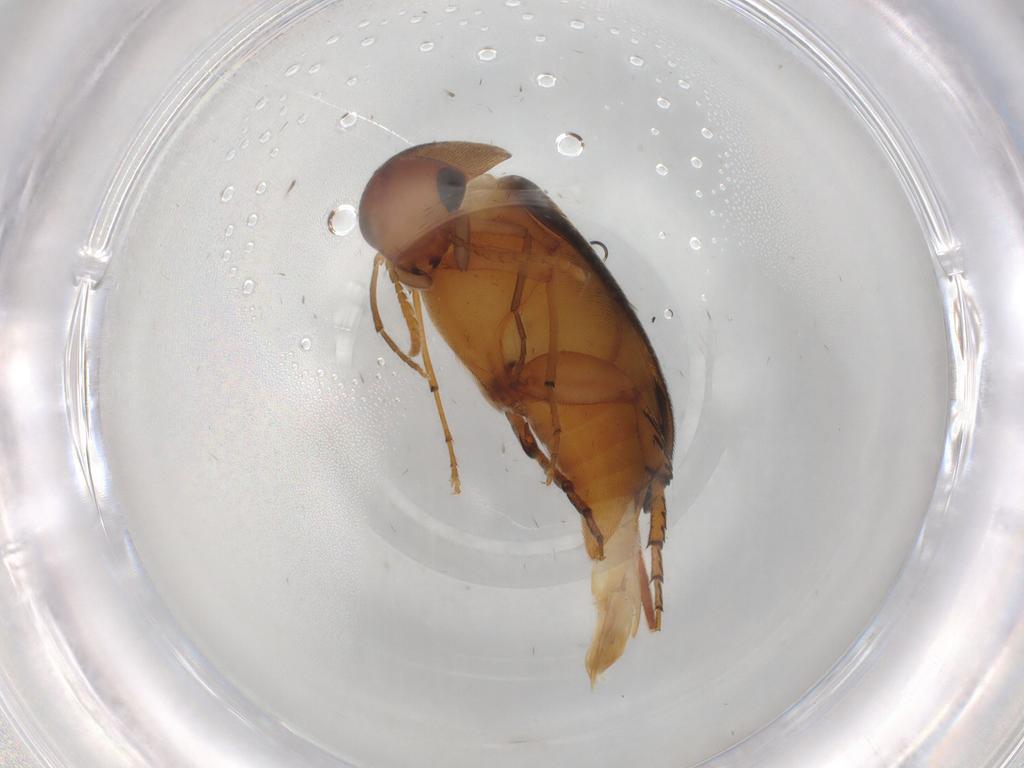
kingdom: Animalia
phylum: Arthropoda
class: Insecta
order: Coleoptera
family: Mordellidae
